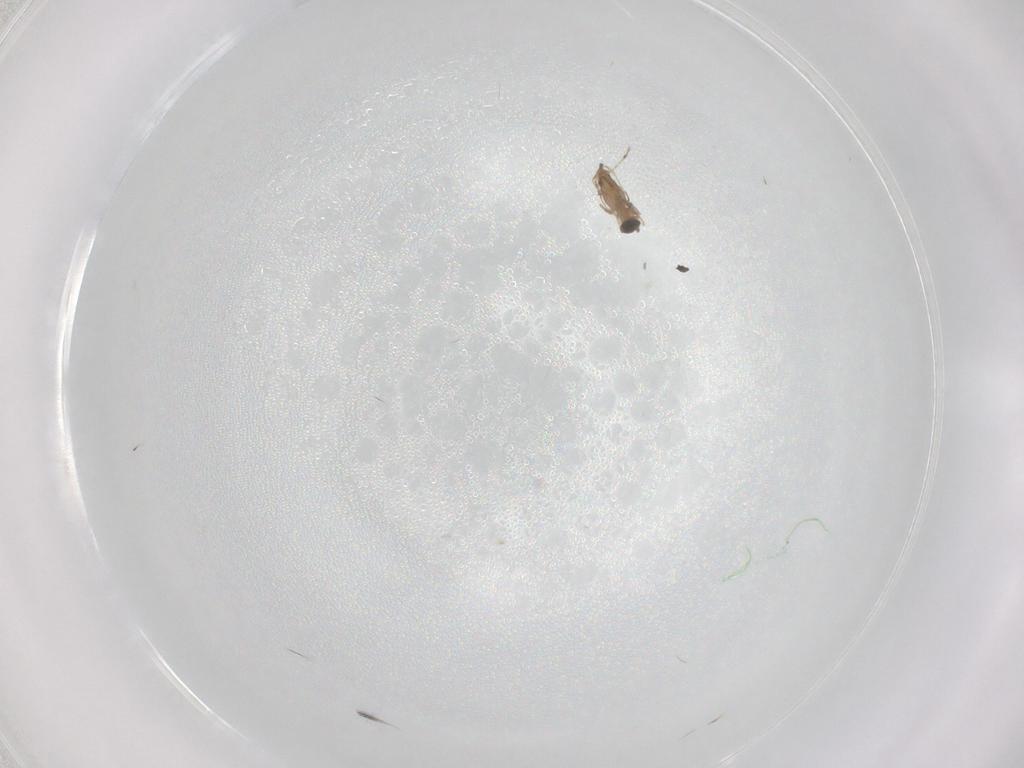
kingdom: Animalia
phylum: Arthropoda
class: Insecta
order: Diptera
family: Cecidomyiidae
